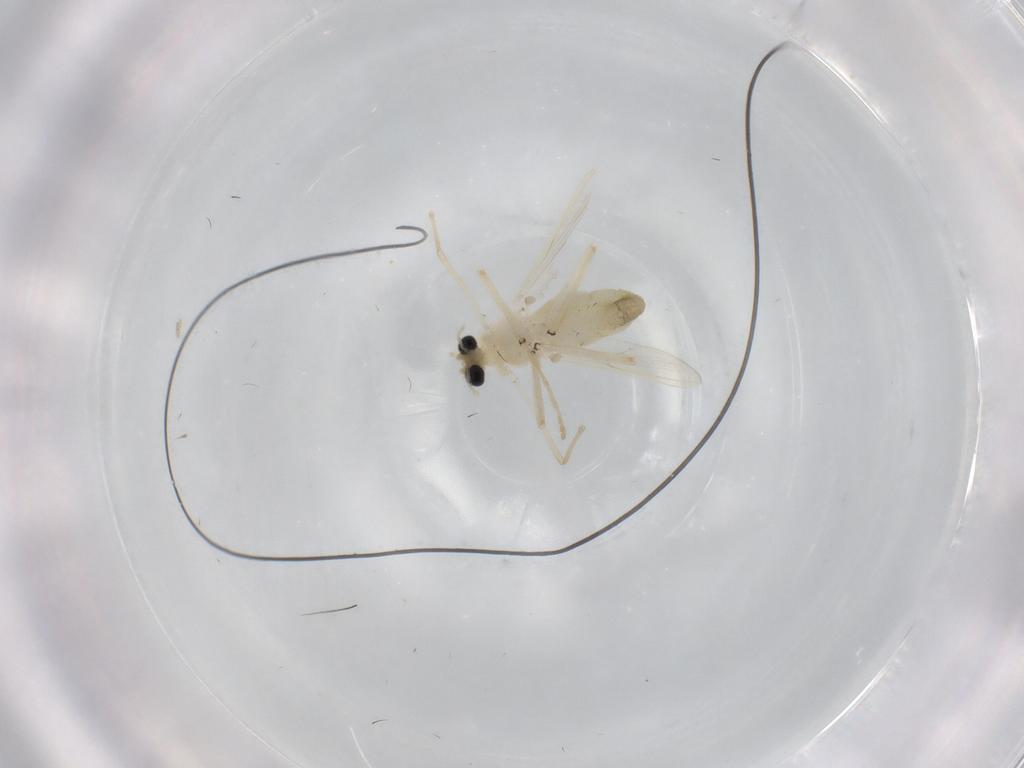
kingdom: Animalia
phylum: Arthropoda
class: Insecta
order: Diptera
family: Chironomidae
